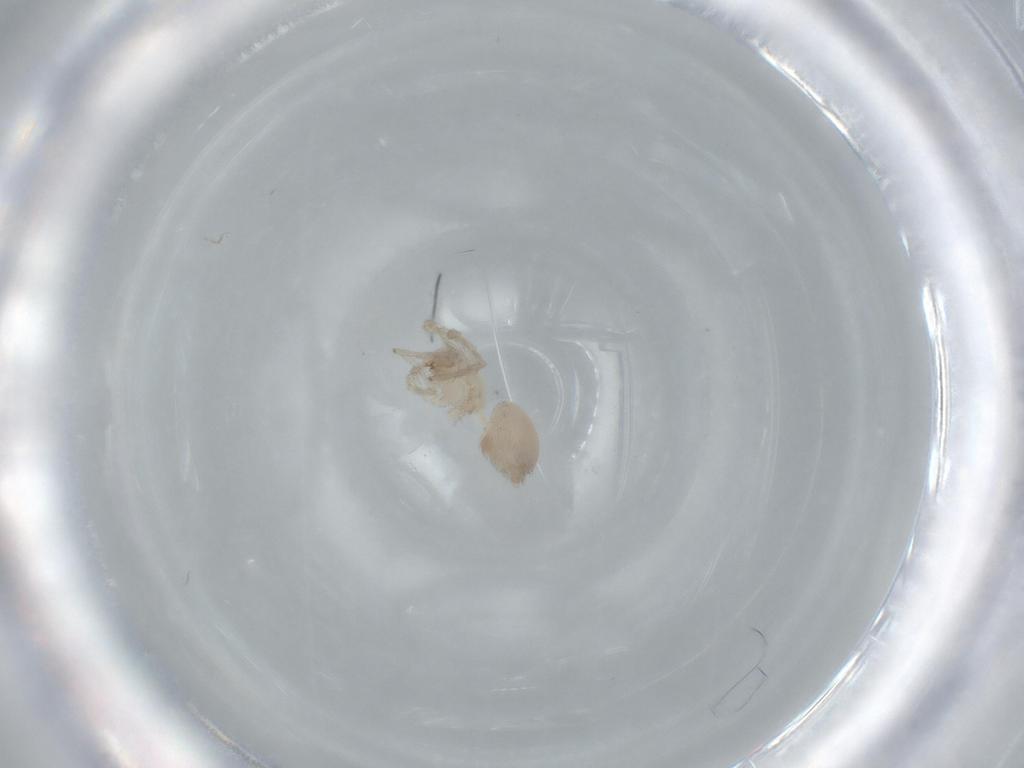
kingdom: Animalia
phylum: Arthropoda
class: Arachnida
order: Araneae
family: Oonopidae
